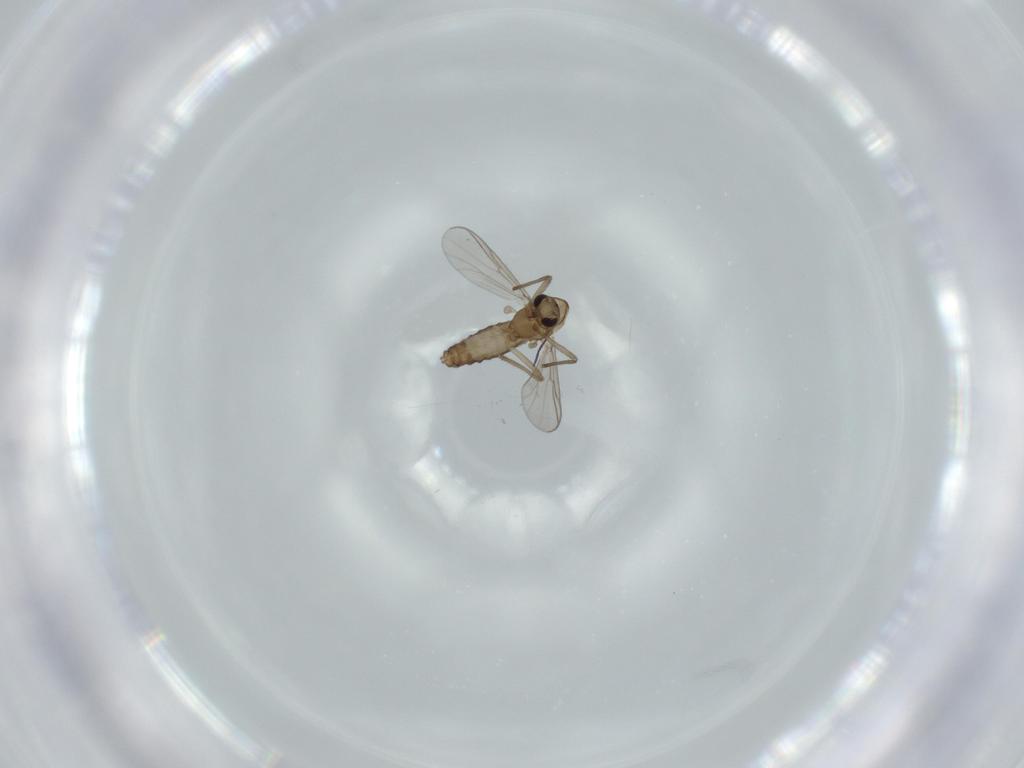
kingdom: Animalia
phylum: Arthropoda
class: Insecta
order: Diptera
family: Chironomidae
